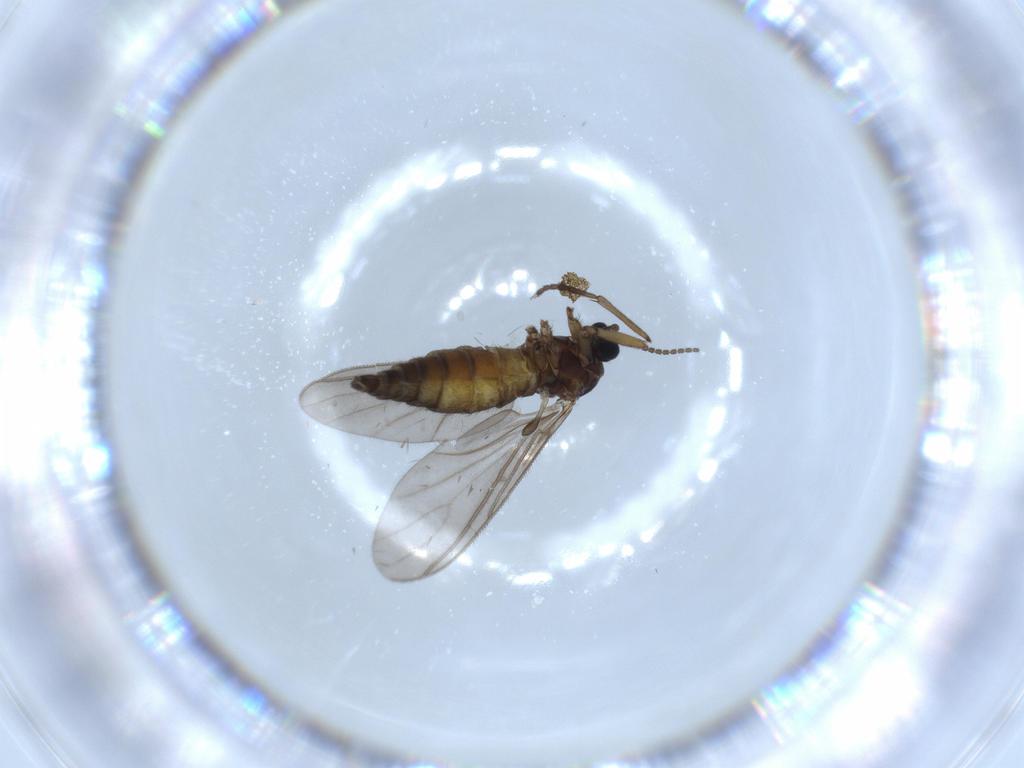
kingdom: Animalia
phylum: Arthropoda
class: Insecta
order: Diptera
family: Sciaridae
